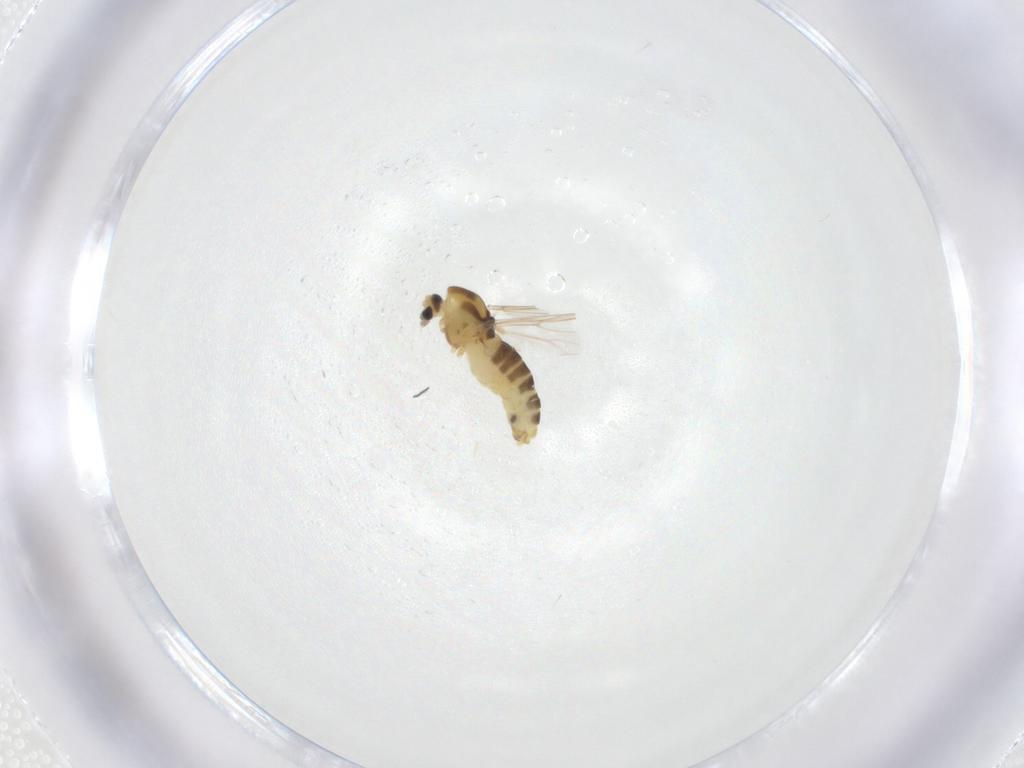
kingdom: Animalia
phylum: Arthropoda
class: Insecta
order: Diptera
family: Chironomidae
